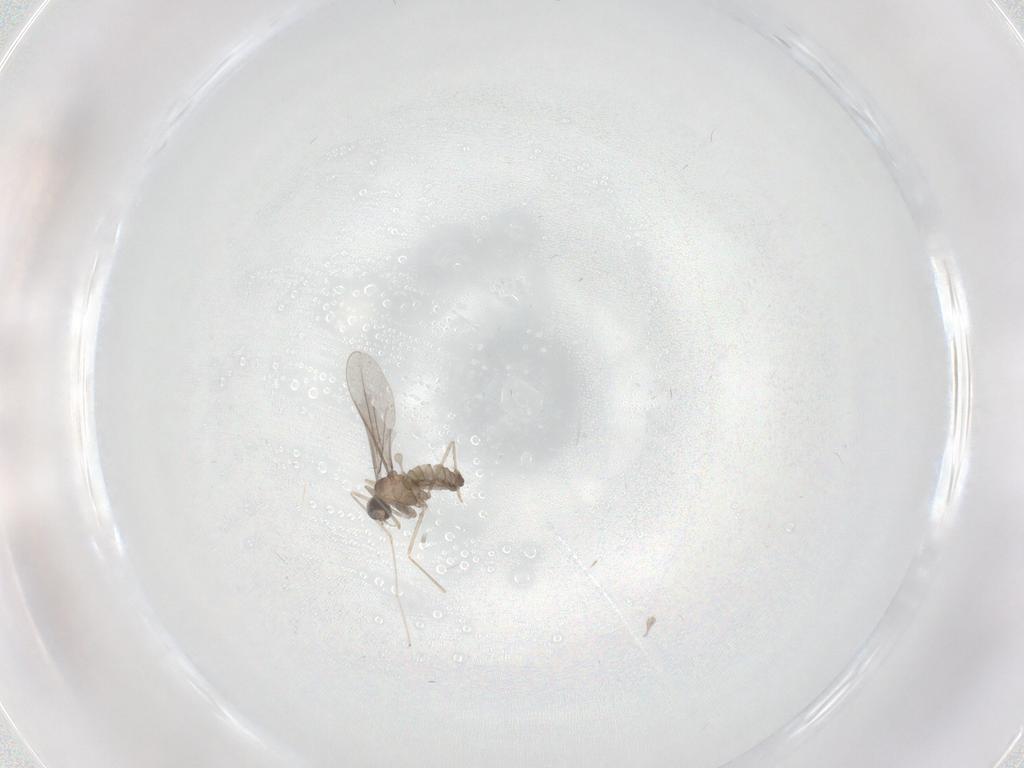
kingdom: Animalia
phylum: Arthropoda
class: Insecta
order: Diptera
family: Cecidomyiidae
